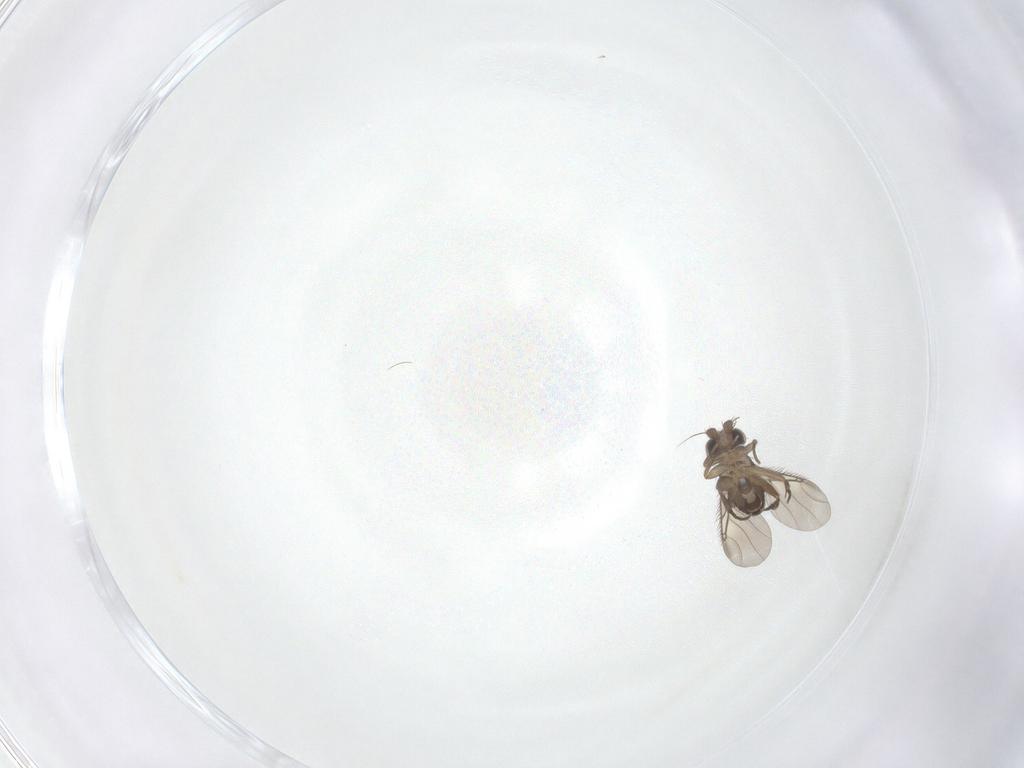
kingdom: Animalia
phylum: Arthropoda
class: Insecta
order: Diptera
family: Phoridae
